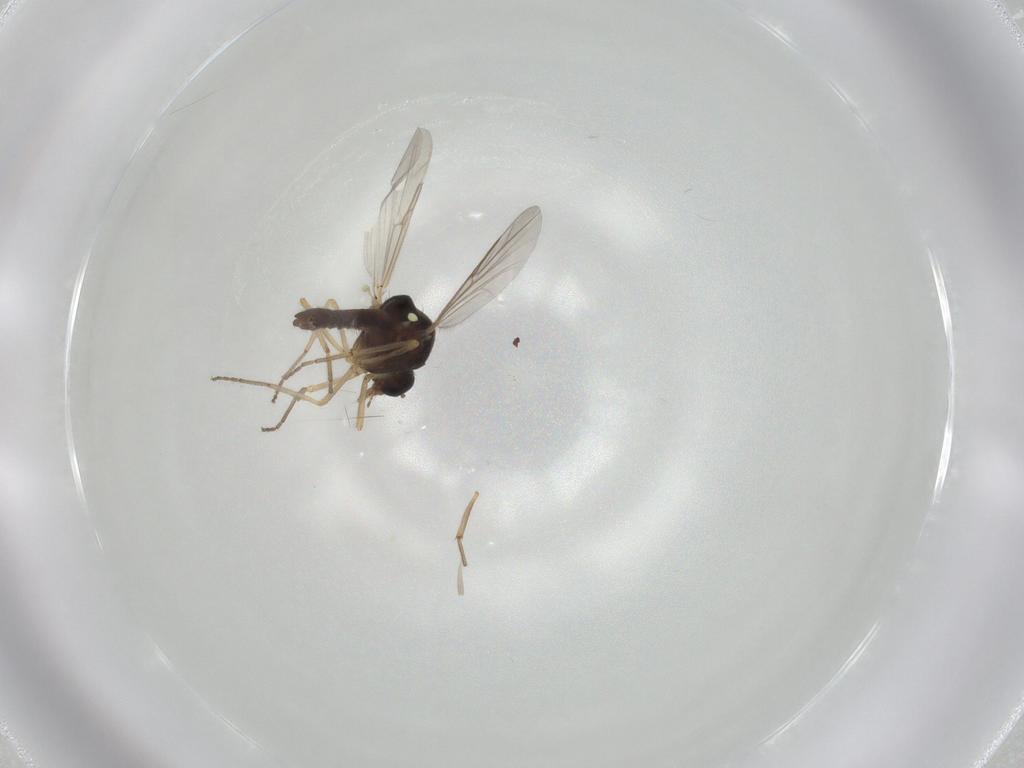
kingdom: Animalia
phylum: Arthropoda
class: Insecta
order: Diptera
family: Ceratopogonidae
